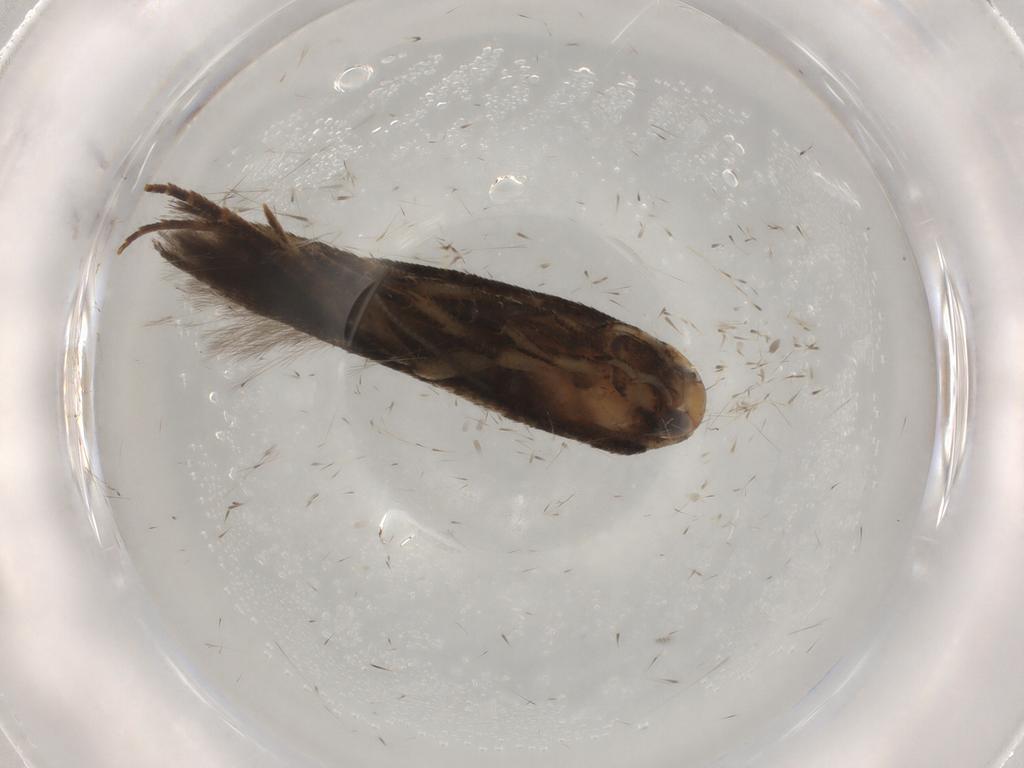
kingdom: Animalia
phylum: Arthropoda
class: Insecta
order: Lepidoptera
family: Cosmopterigidae
